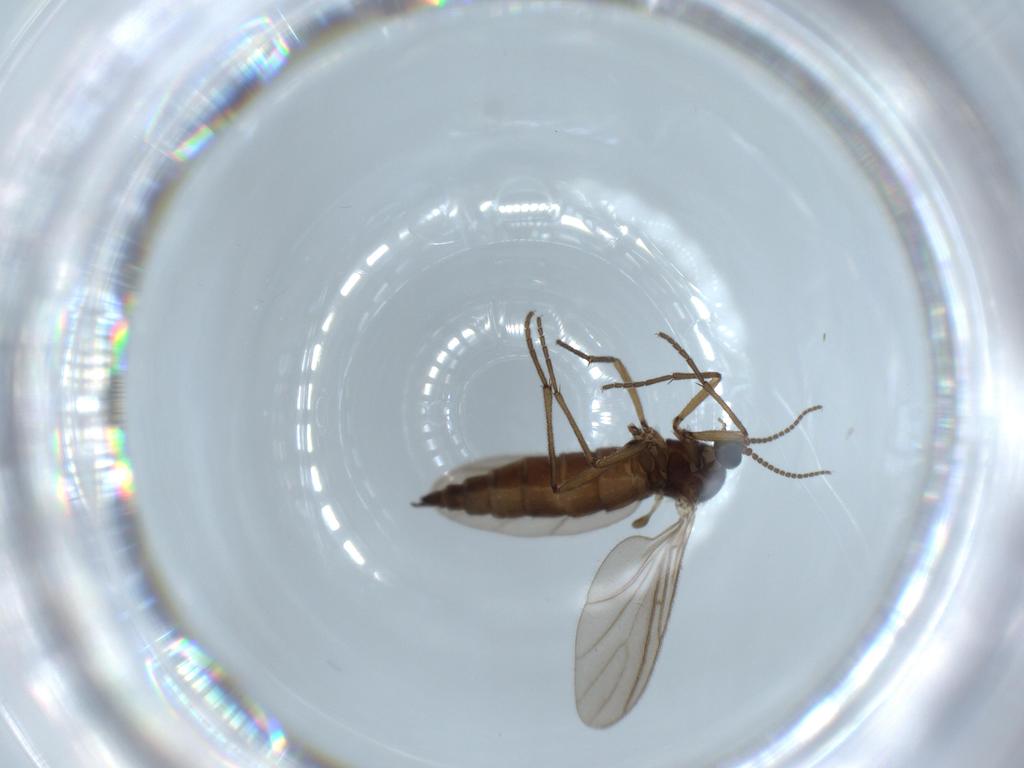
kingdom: Animalia
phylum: Arthropoda
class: Insecta
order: Diptera
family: Sciaridae
